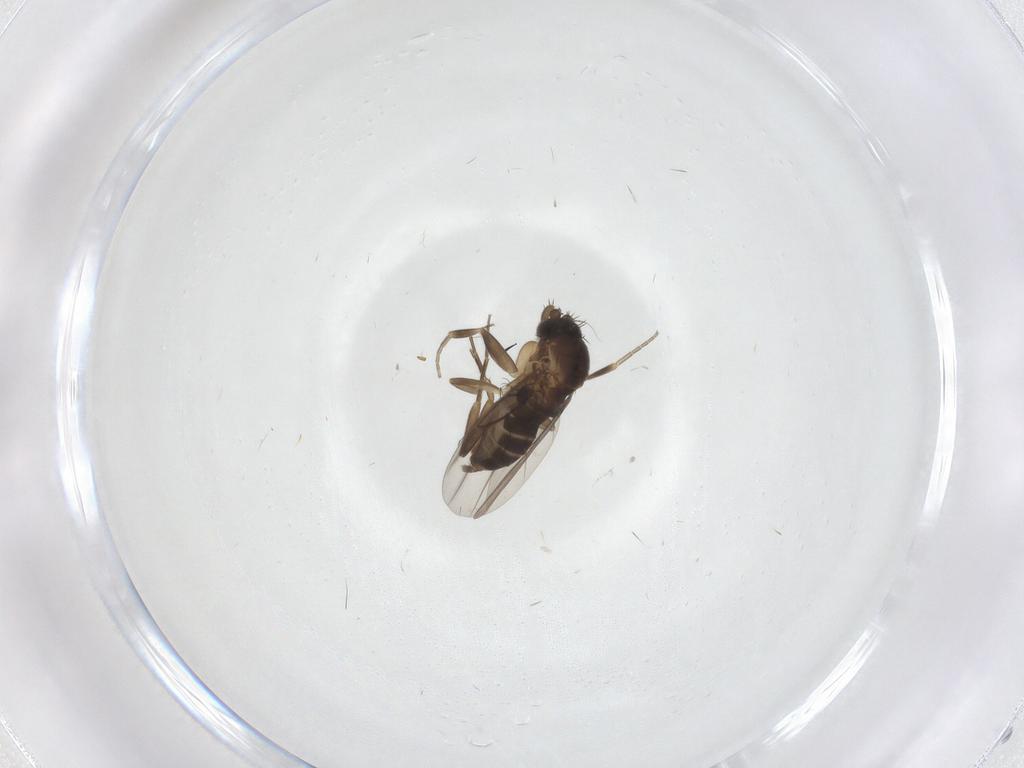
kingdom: Animalia
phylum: Arthropoda
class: Insecta
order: Diptera
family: Phoridae
